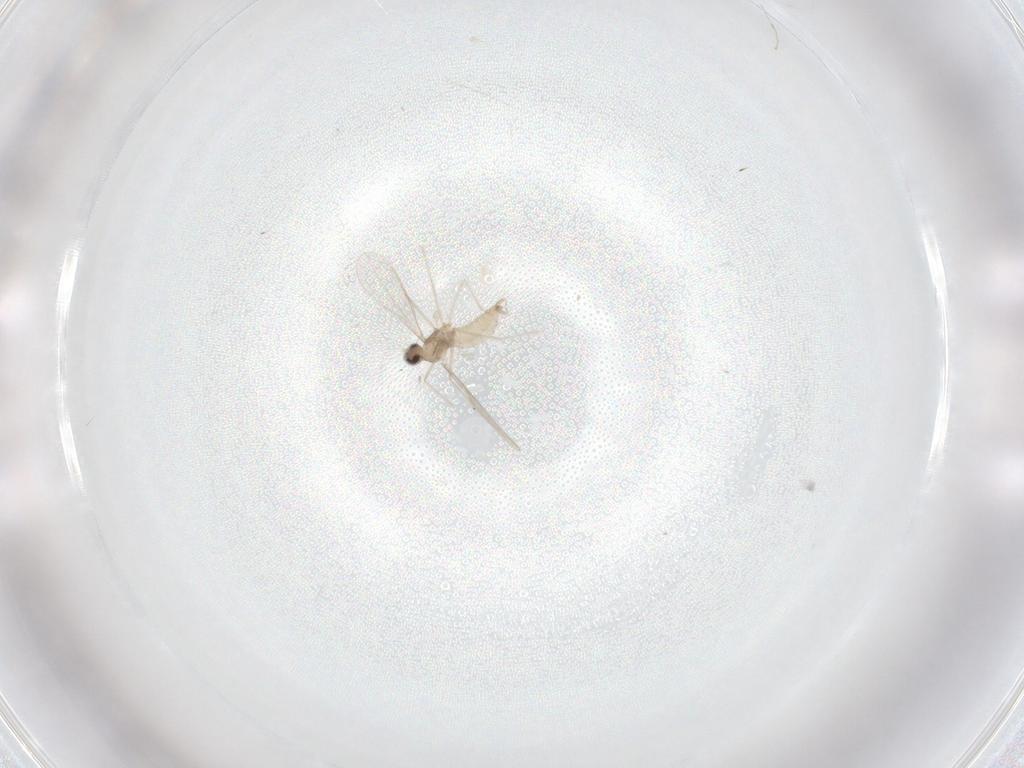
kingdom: Animalia
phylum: Arthropoda
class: Insecta
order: Diptera
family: Cecidomyiidae
